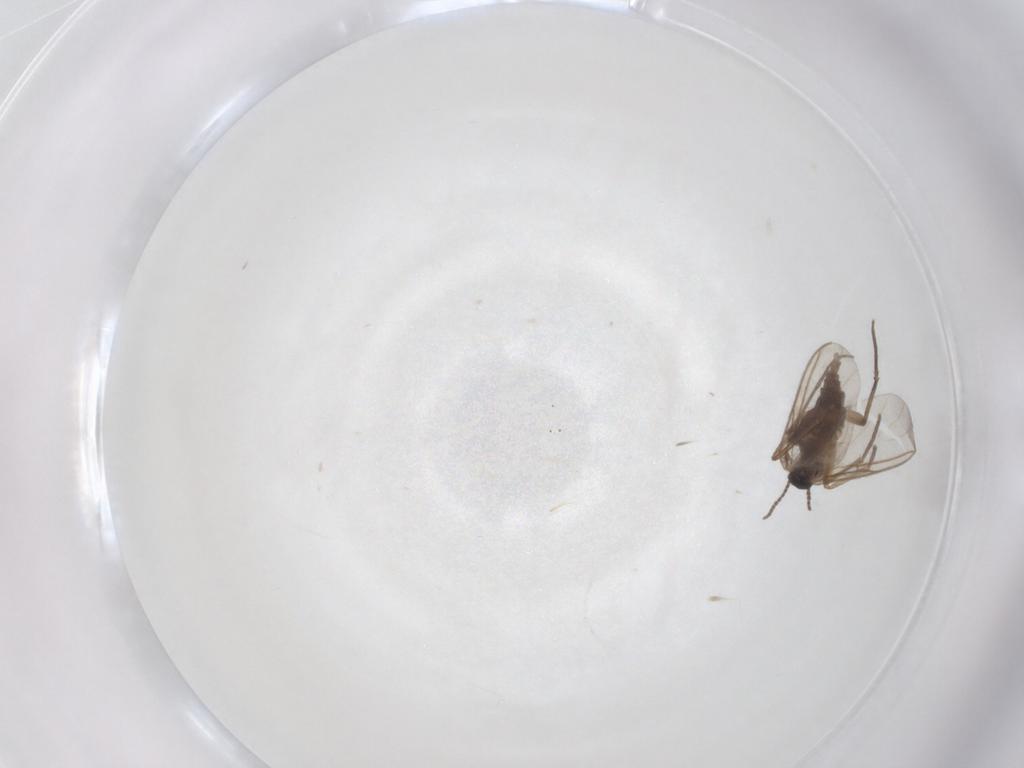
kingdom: Animalia
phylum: Arthropoda
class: Insecta
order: Diptera
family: Sciaridae
